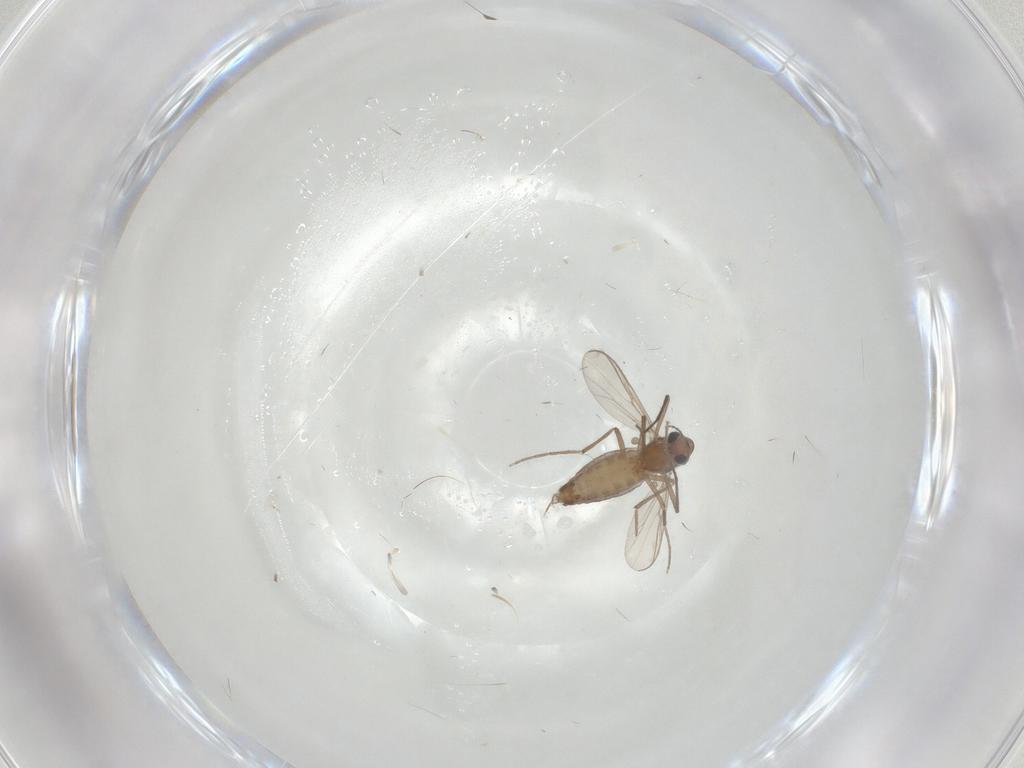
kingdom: Animalia
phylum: Arthropoda
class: Insecta
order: Diptera
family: Chironomidae
